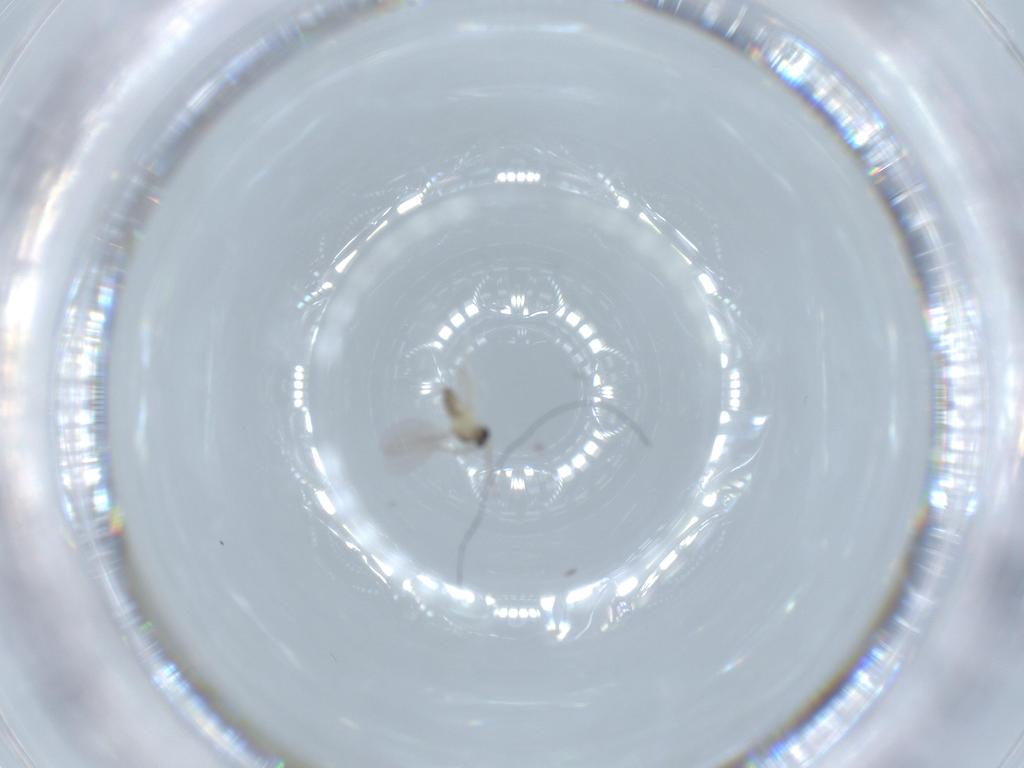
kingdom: Animalia
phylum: Arthropoda
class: Insecta
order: Diptera
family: Cecidomyiidae
